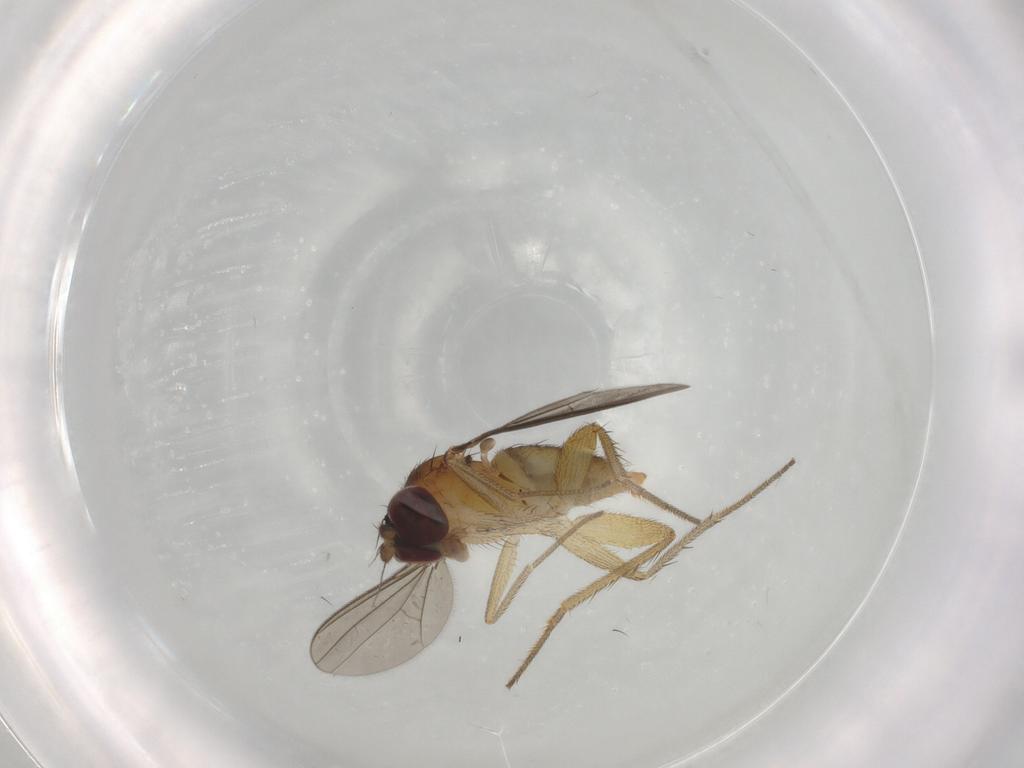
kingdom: Animalia
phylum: Arthropoda
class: Insecta
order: Diptera
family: Dolichopodidae
